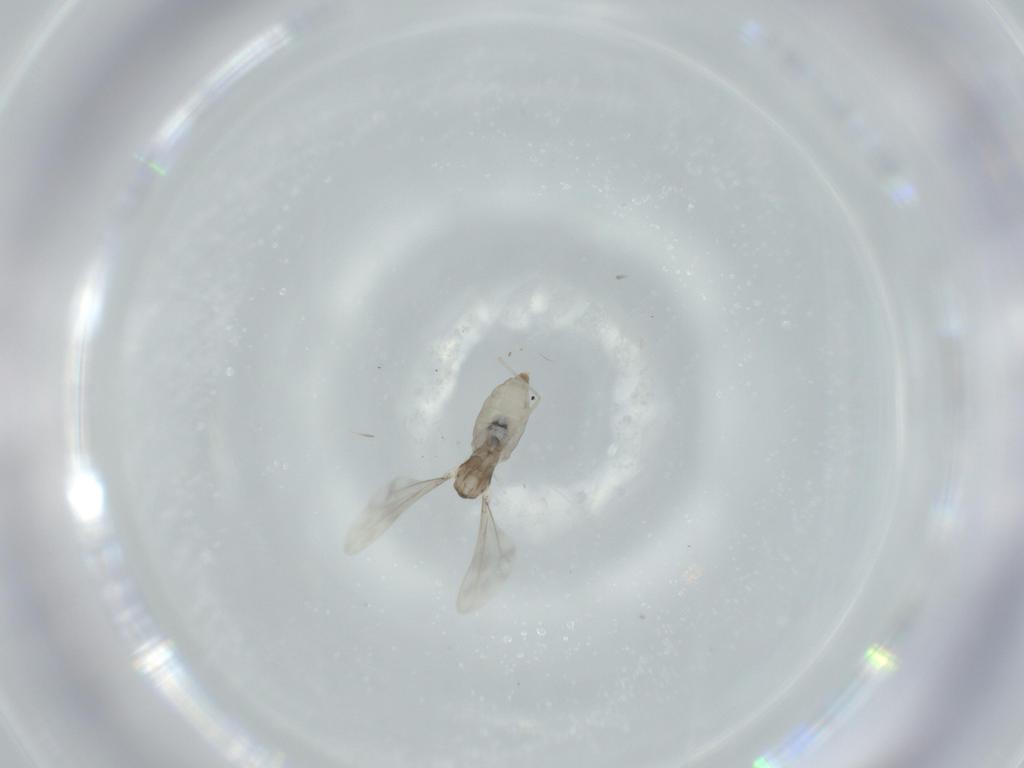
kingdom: Animalia
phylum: Arthropoda
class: Insecta
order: Diptera
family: Cecidomyiidae
